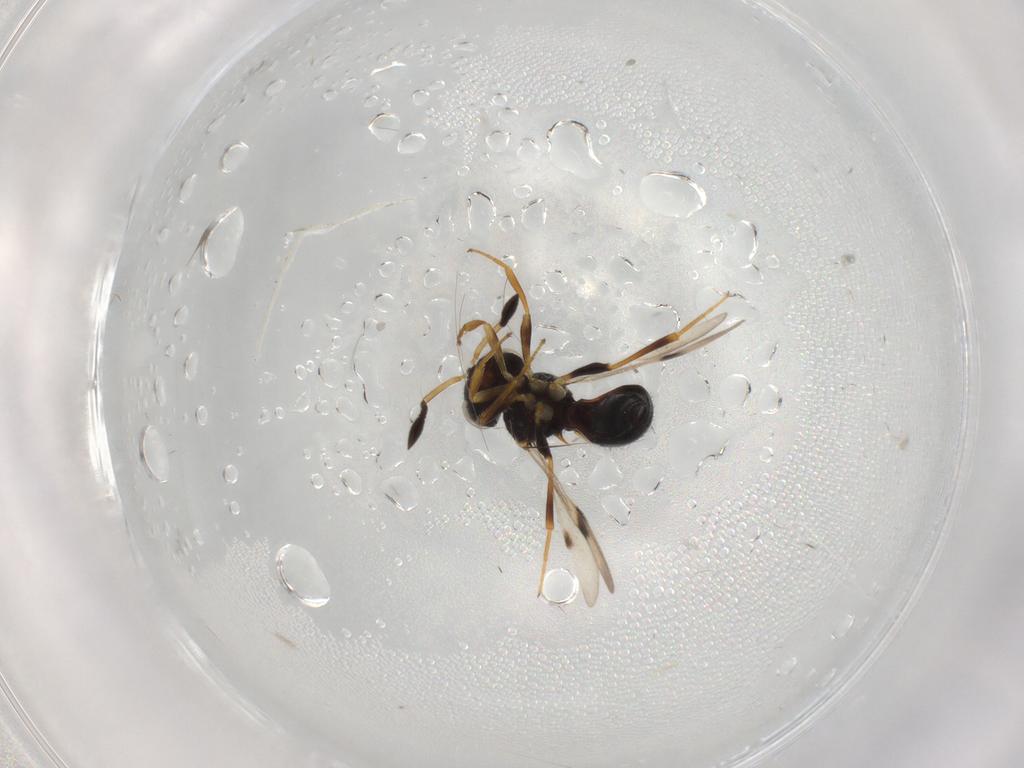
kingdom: Animalia
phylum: Arthropoda
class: Insecta
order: Hymenoptera
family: Scelionidae
